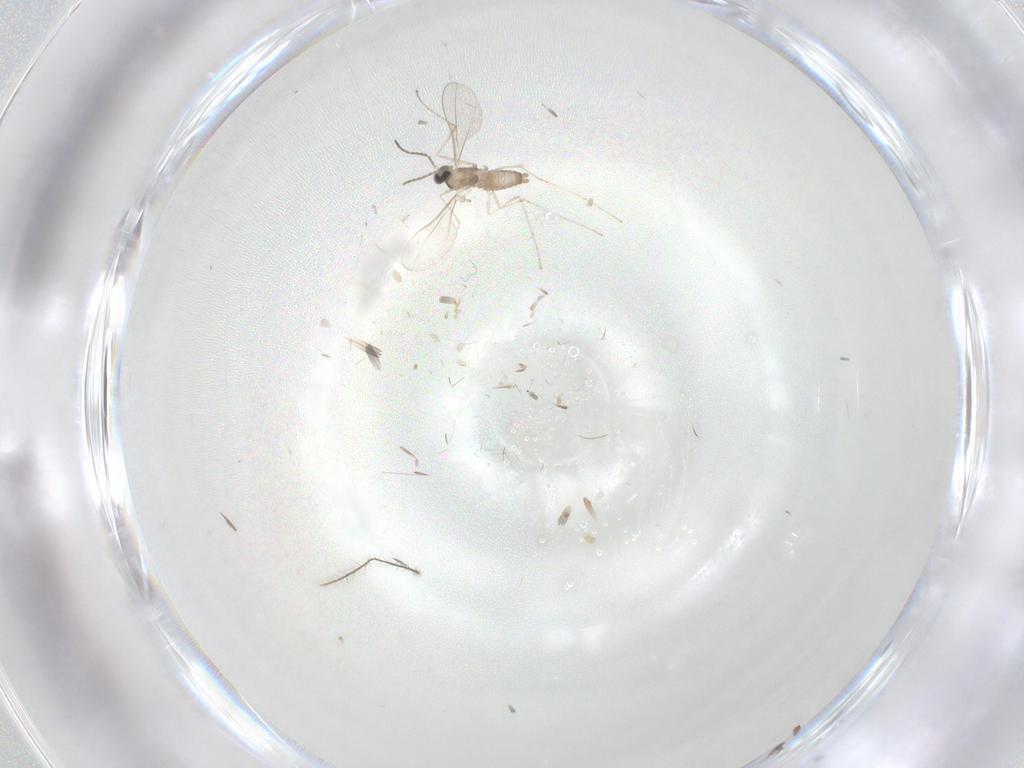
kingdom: Animalia
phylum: Arthropoda
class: Insecta
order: Diptera
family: Cecidomyiidae
